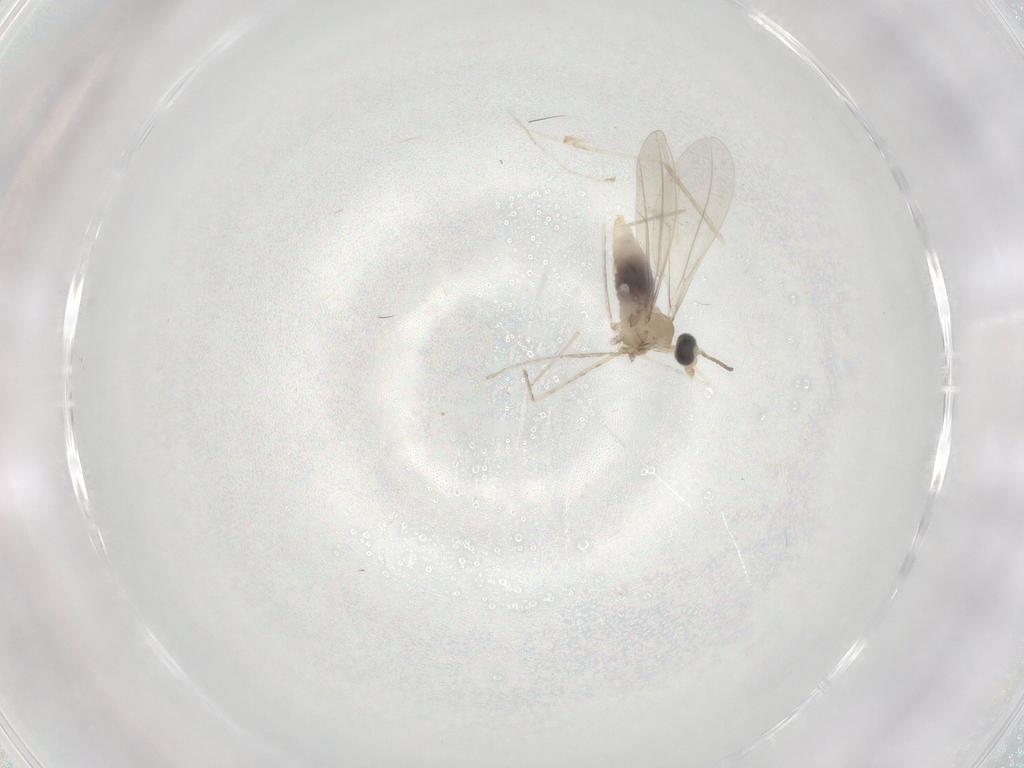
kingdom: Animalia
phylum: Arthropoda
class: Insecta
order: Diptera
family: Cecidomyiidae
